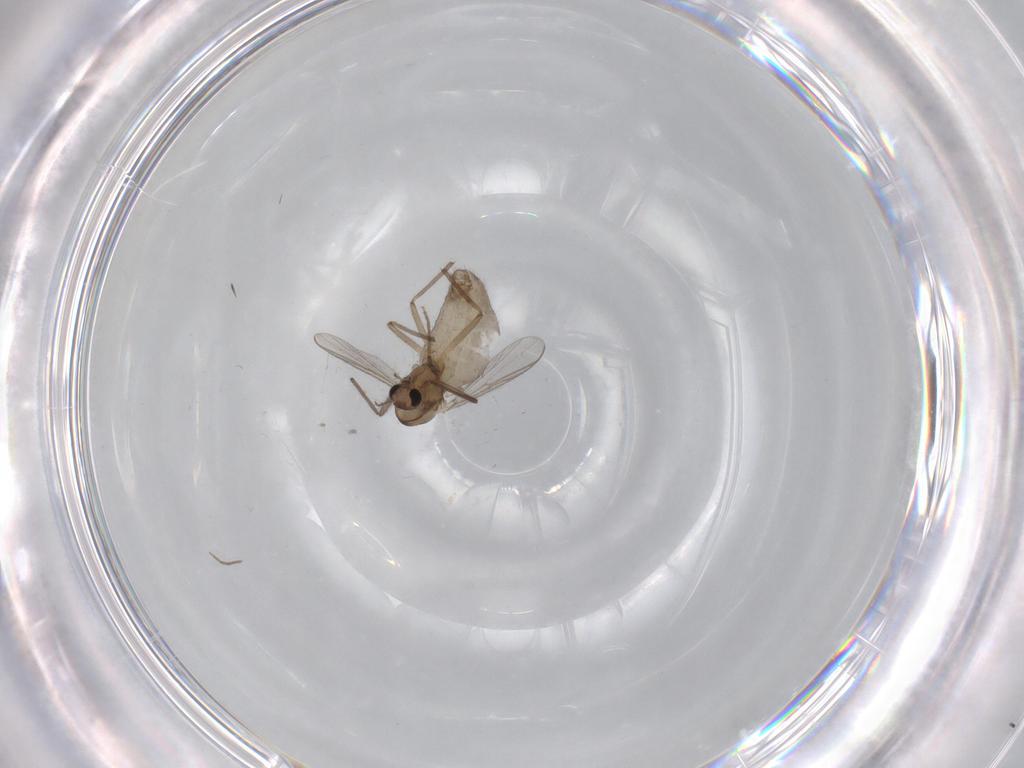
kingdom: Animalia
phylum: Arthropoda
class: Insecta
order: Diptera
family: Chironomidae
